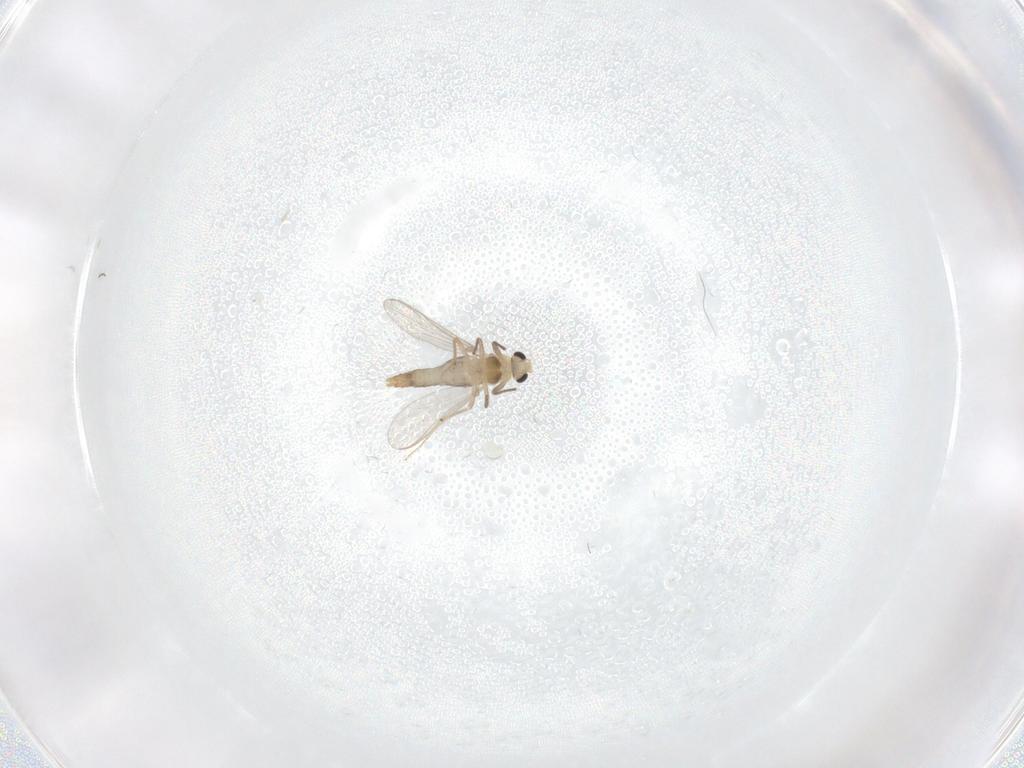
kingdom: Animalia
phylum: Arthropoda
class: Insecta
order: Diptera
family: Chironomidae
